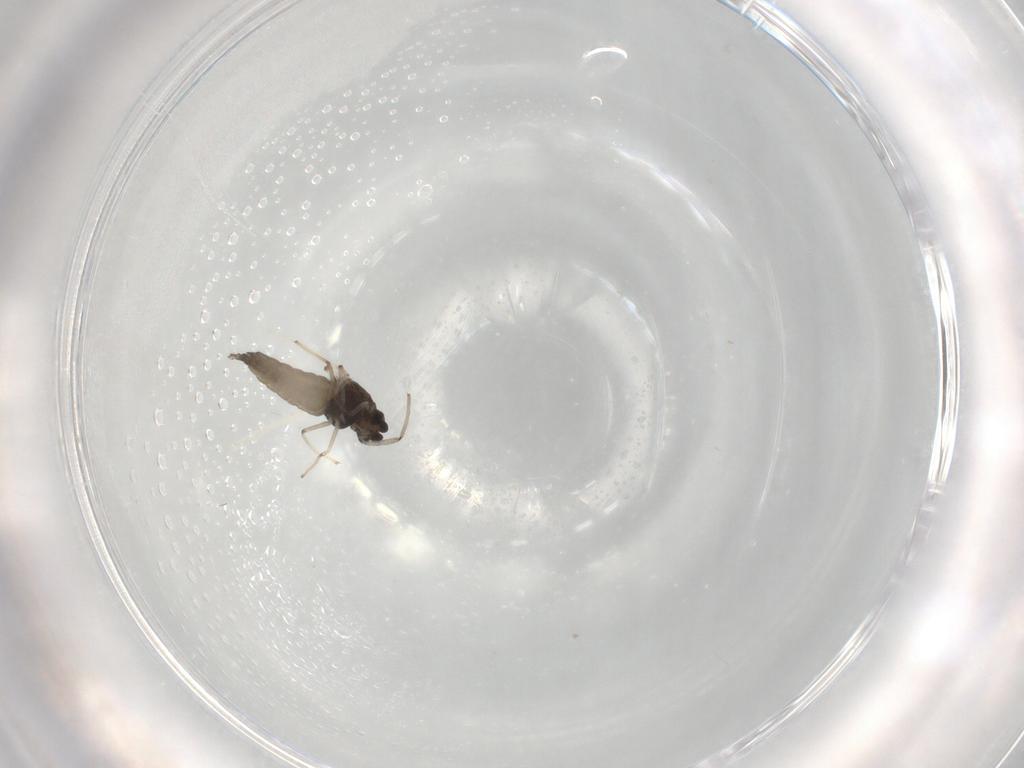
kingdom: Animalia
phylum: Arthropoda
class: Insecta
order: Diptera
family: Chironomidae
